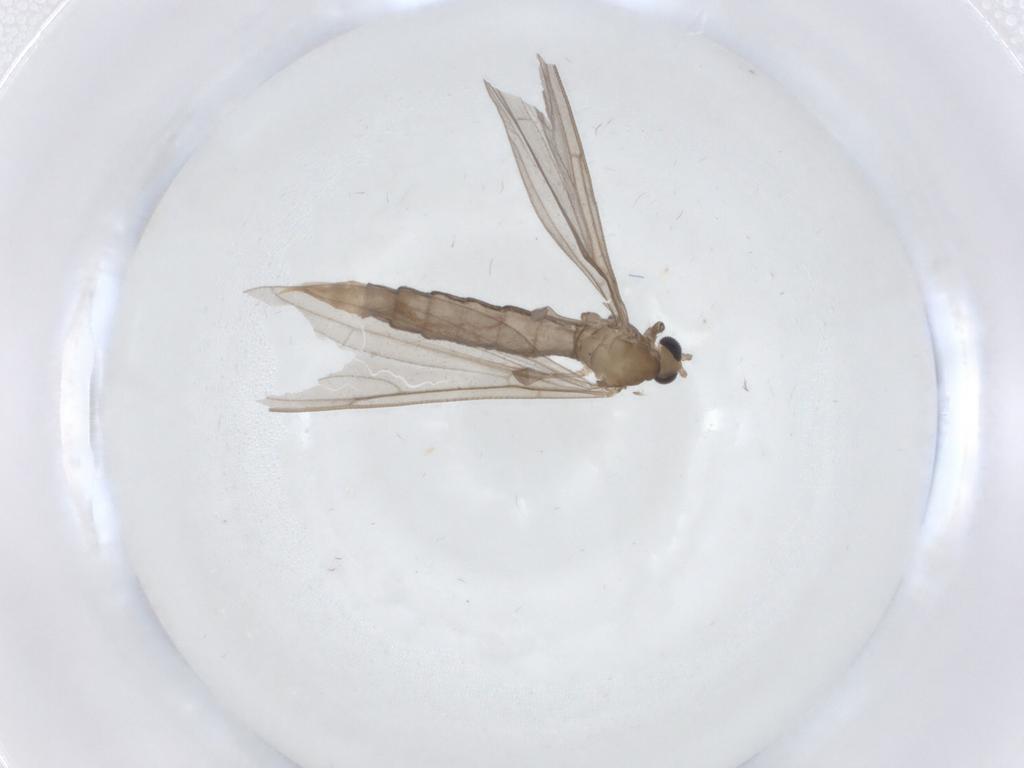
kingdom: Animalia
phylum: Arthropoda
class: Insecta
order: Diptera
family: Limoniidae
